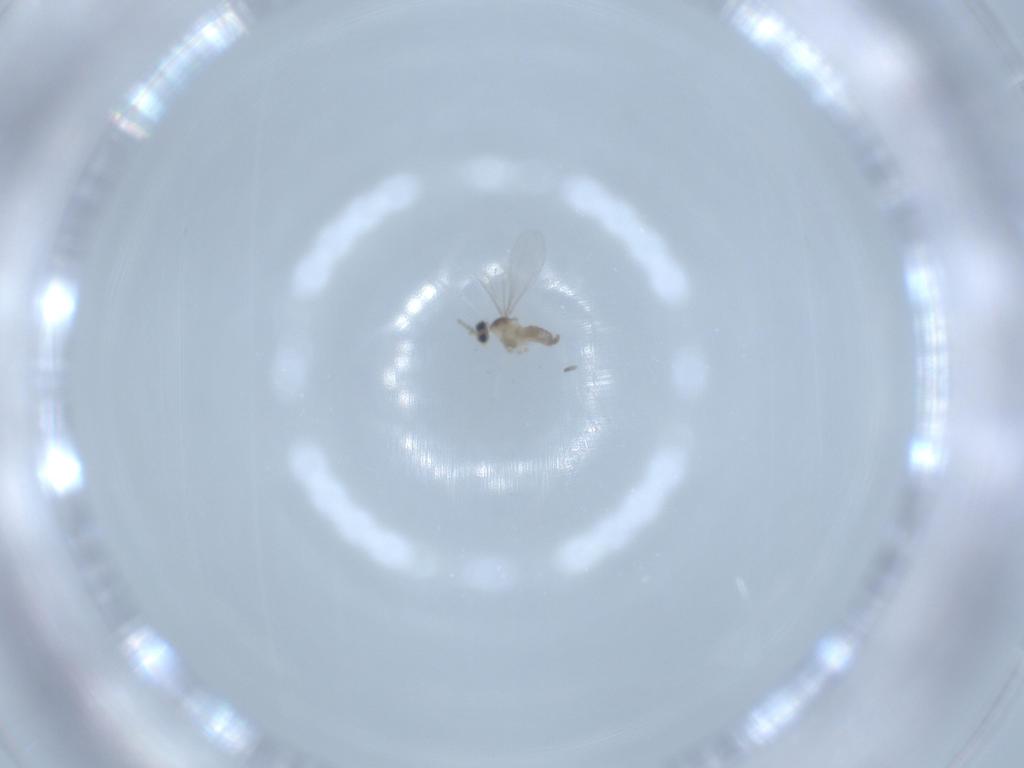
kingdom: Animalia
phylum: Arthropoda
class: Insecta
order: Diptera
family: Cecidomyiidae
